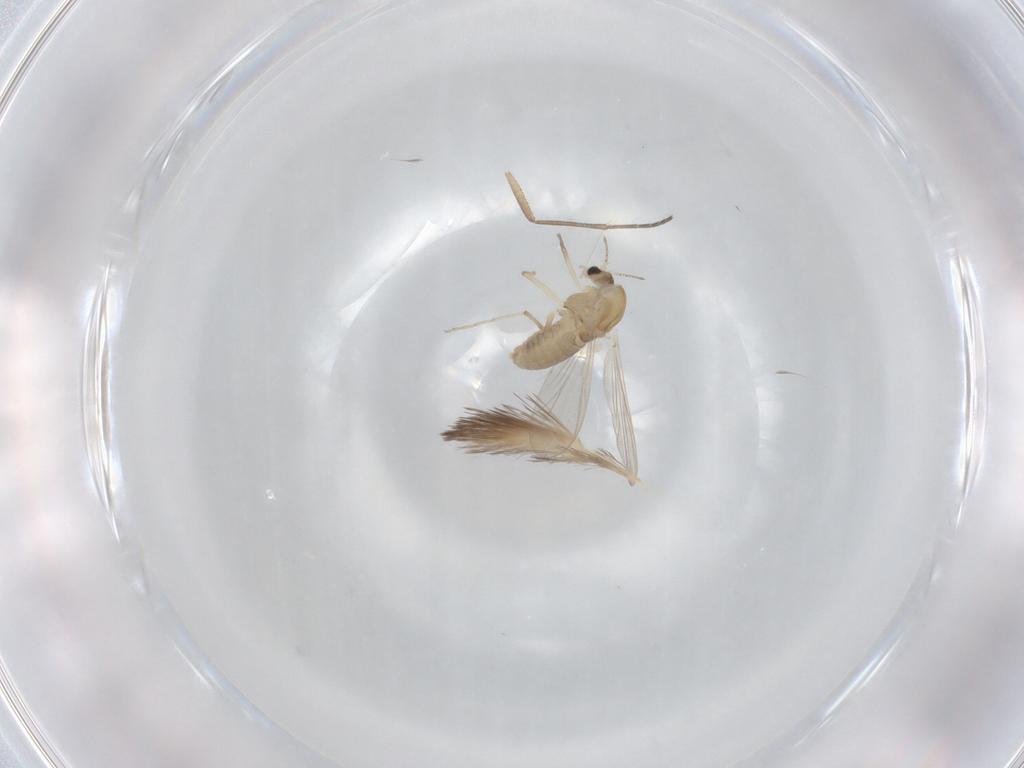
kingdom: Animalia
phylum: Arthropoda
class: Insecta
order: Diptera
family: Chironomidae
